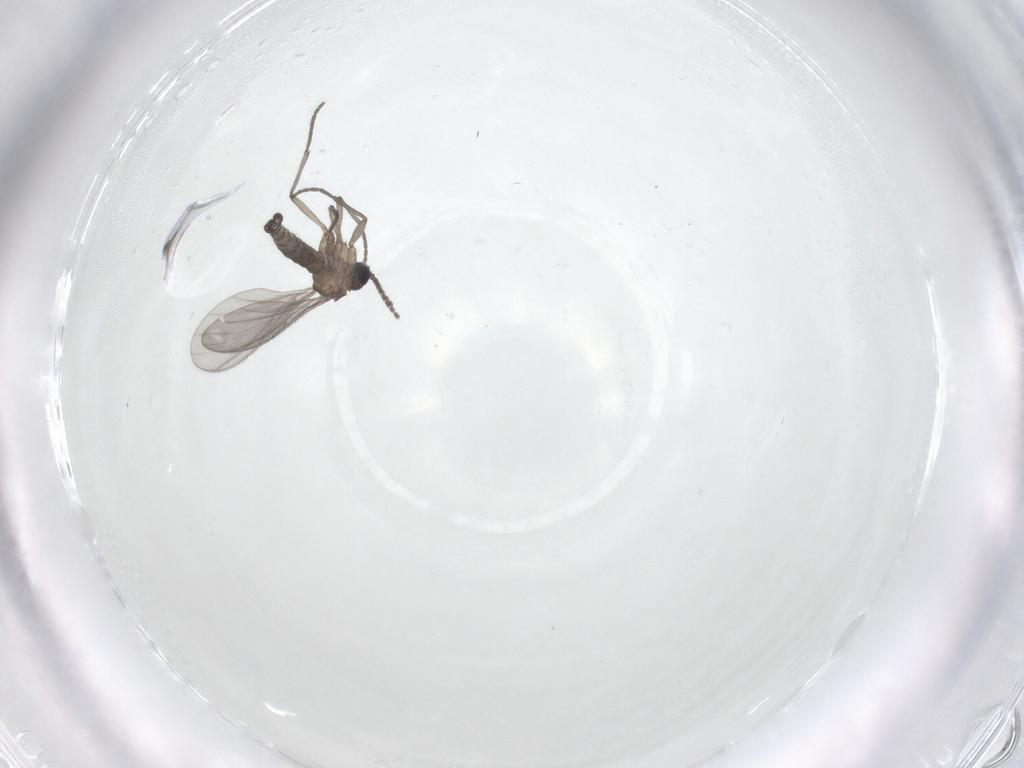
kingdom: Animalia
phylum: Arthropoda
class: Insecta
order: Diptera
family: Sciaridae
